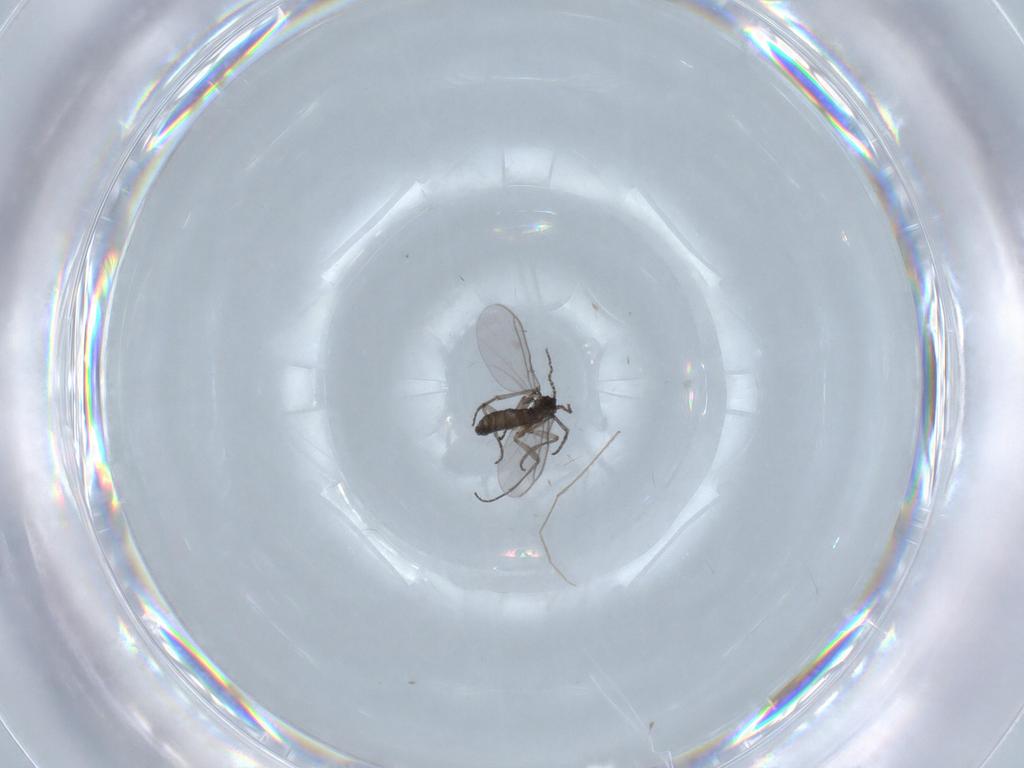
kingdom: Animalia
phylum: Arthropoda
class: Insecta
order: Diptera
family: Chironomidae
